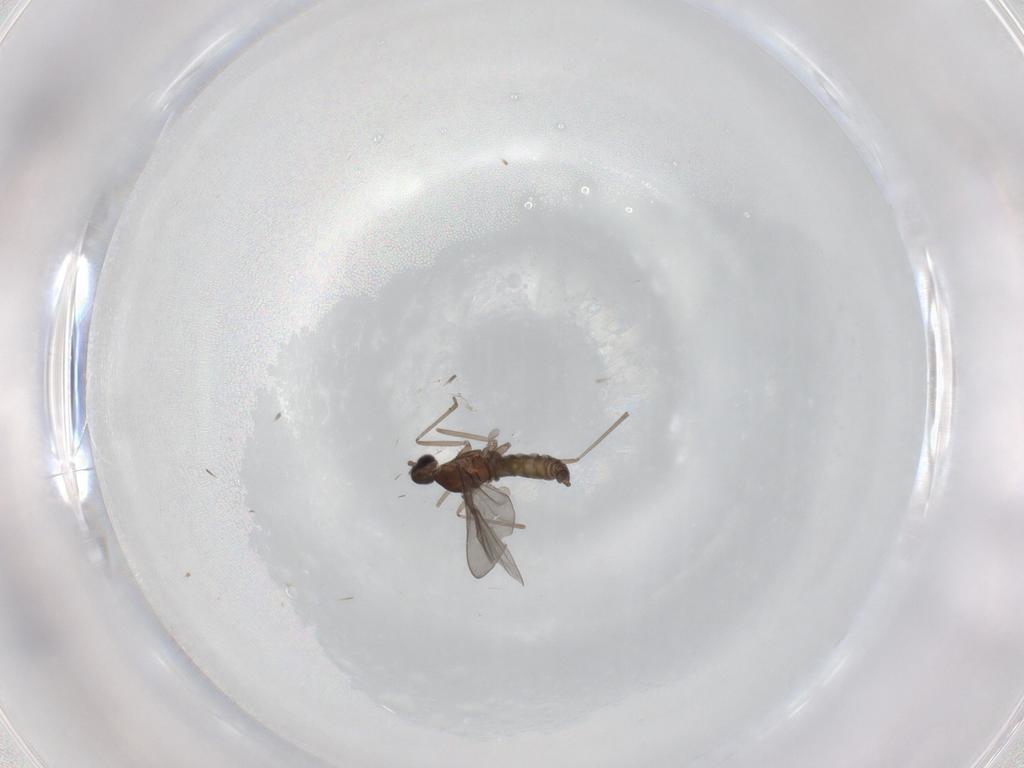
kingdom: Animalia
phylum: Arthropoda
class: Insecta
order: Diptera
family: Cecidomyiidae
